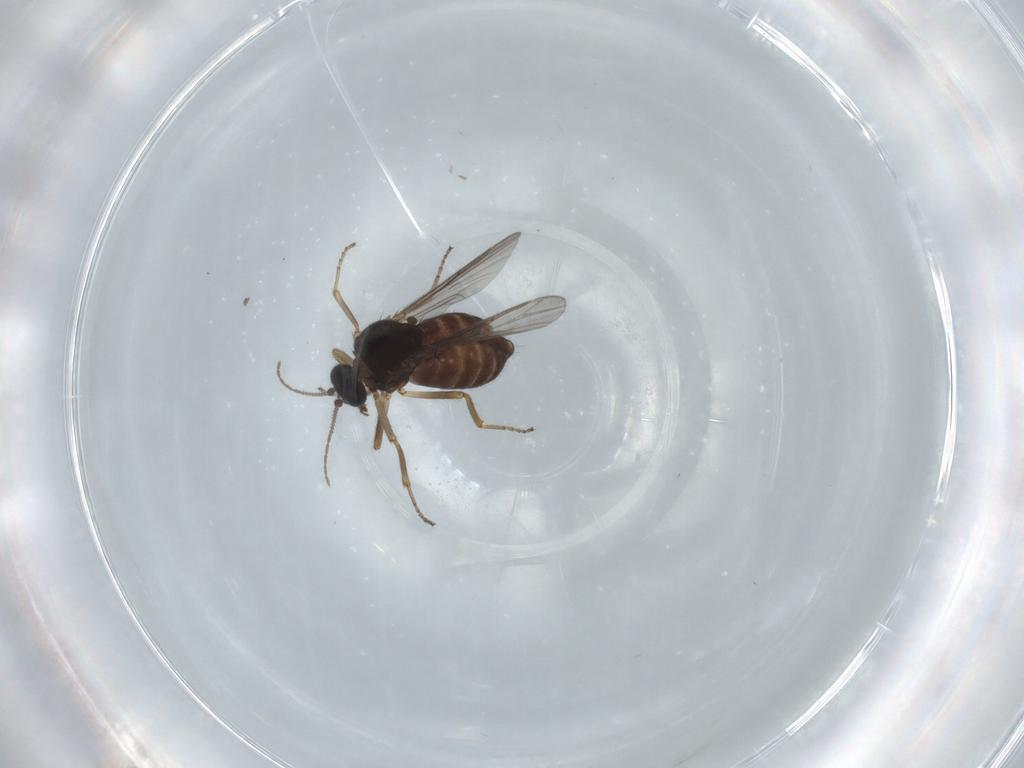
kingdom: Animalia
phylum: Arthropoda
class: Insecta
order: Diptera
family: Ceratopogonidae
